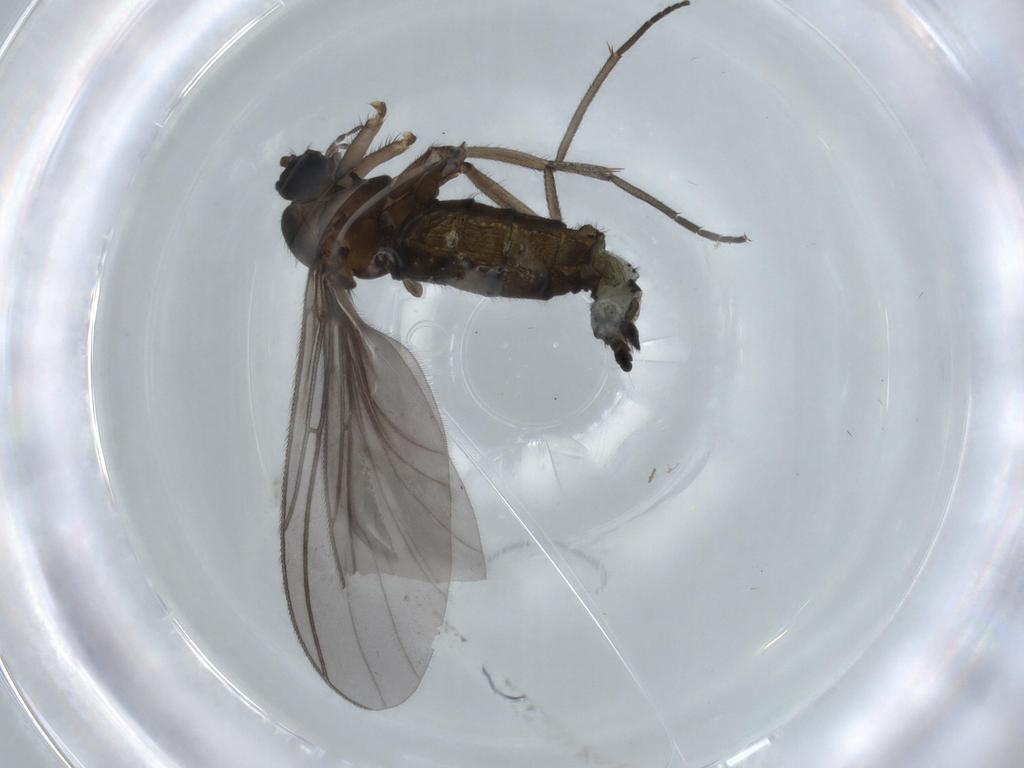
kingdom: Animalia
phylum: Arthropoda
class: Insecta
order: Diptera
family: Sciaridae
